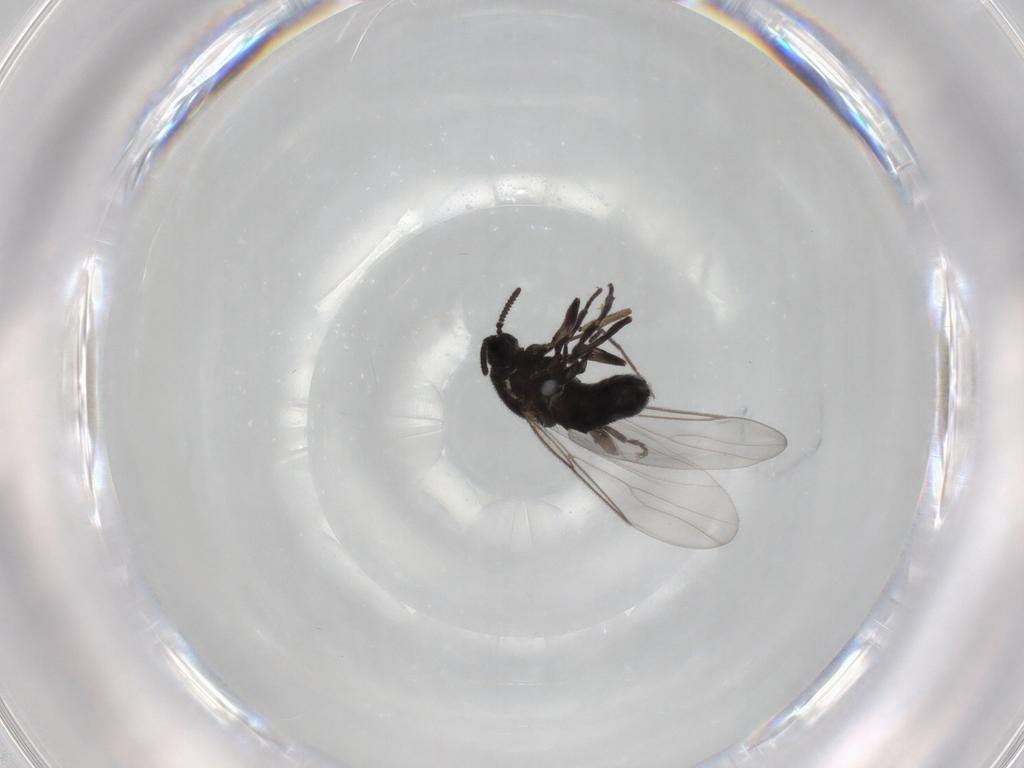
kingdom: Animalia
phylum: Arthropoda
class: Insecta
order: Diptera
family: Scatopsidae
